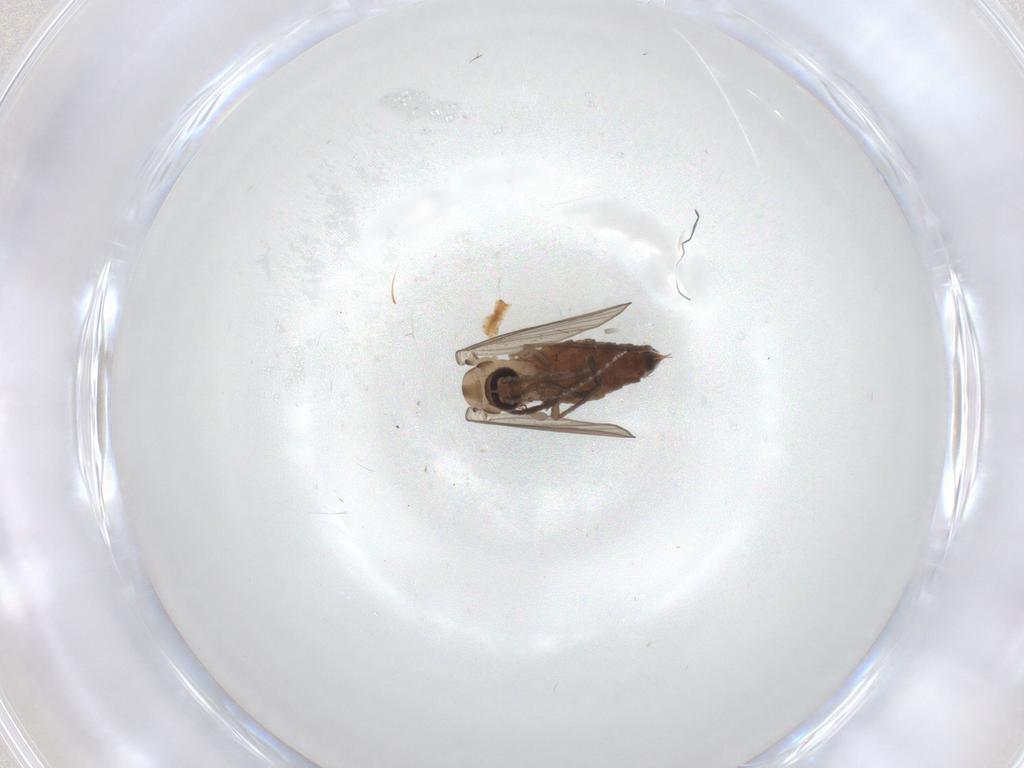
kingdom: Animalia
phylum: Arthropoda
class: Insecta
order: Diptera
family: Psychodidae
